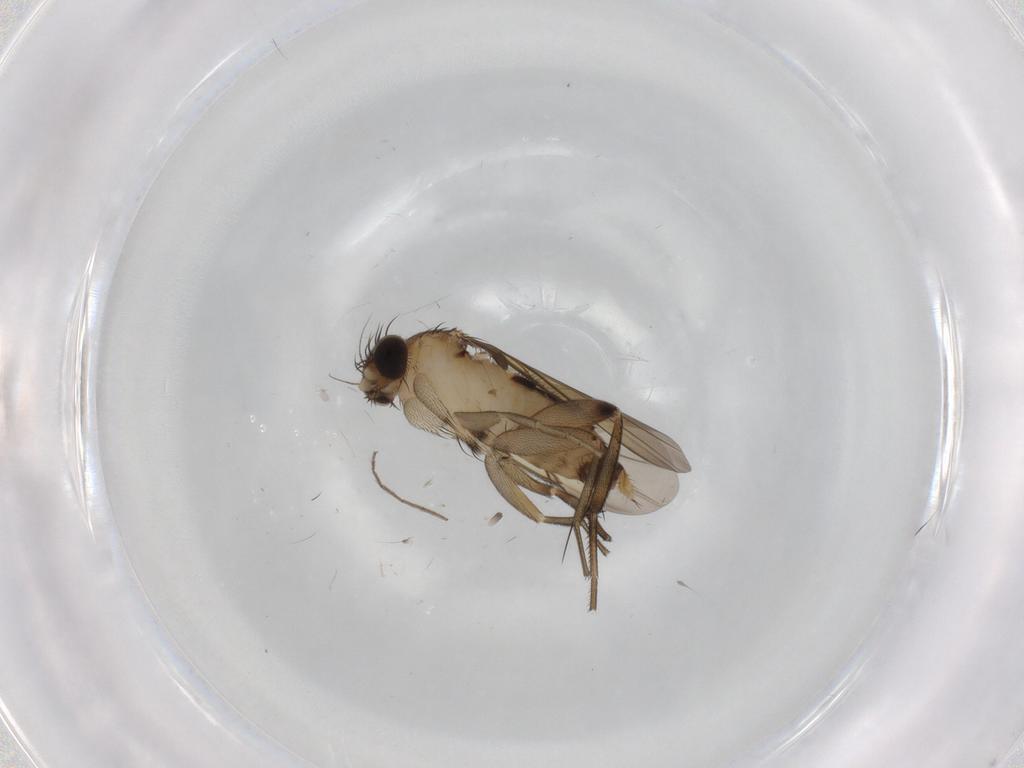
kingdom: Animalia
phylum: Arthropoda
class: Insecta
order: Diptera
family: Phoridae
